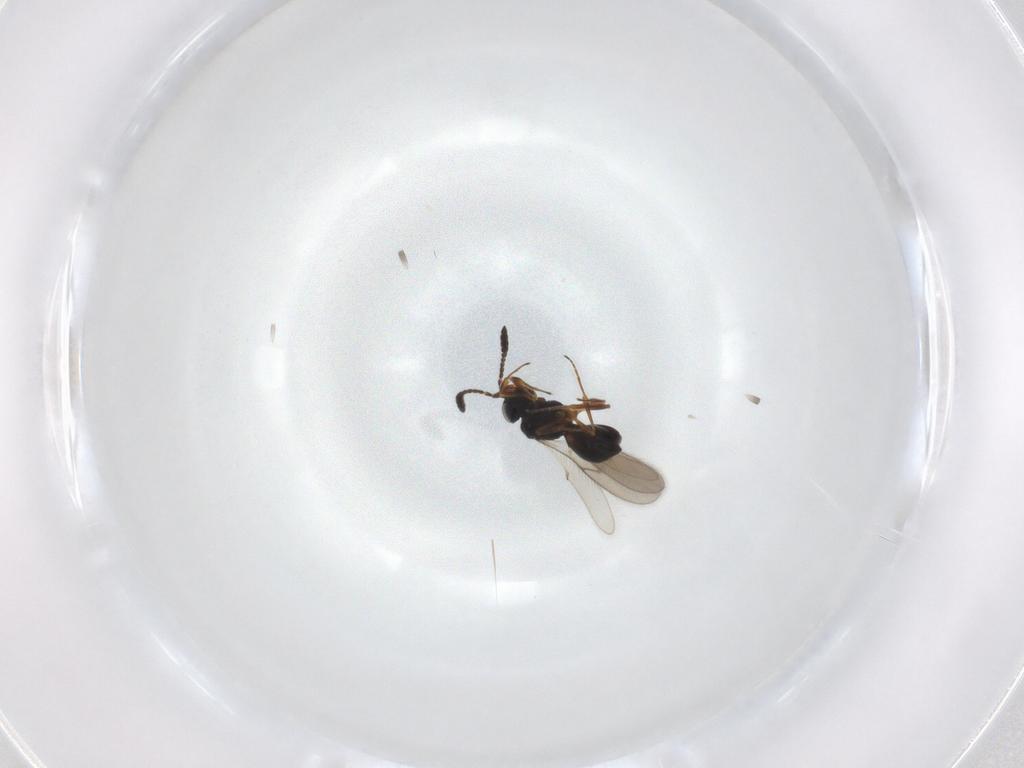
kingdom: Animalia
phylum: Arthropoda
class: Insecta
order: Hymenoptera
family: Scelionidae
